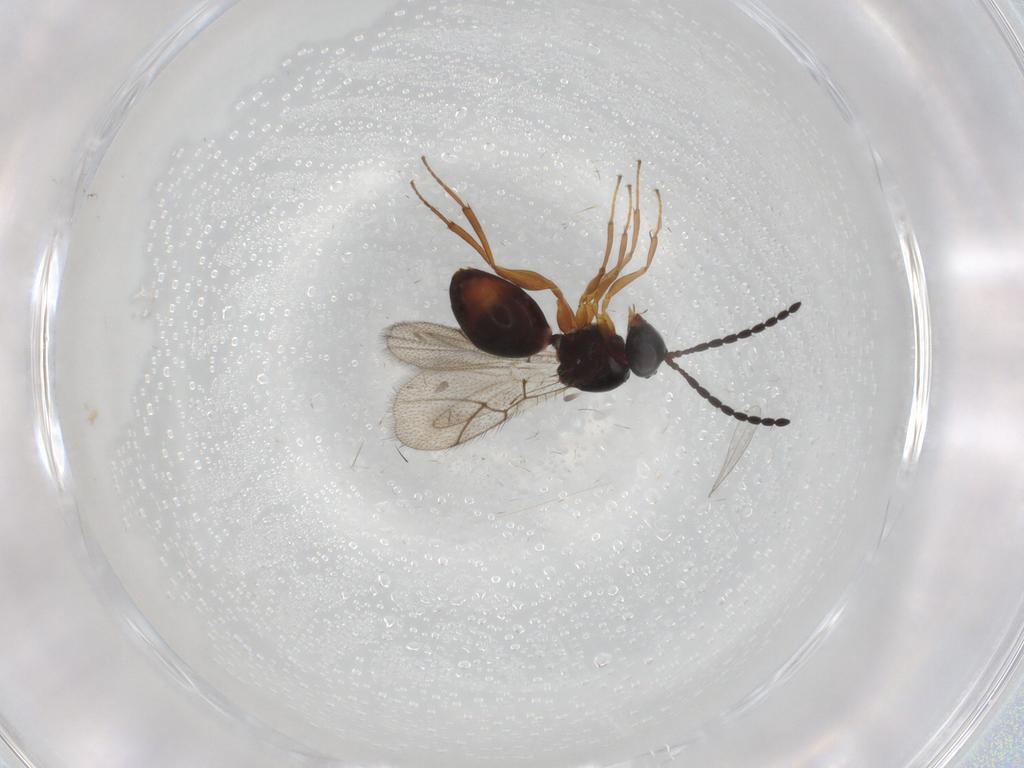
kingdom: Animalia
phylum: Arthropoda
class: Insecta
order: Hymenoptera
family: Figitidae
